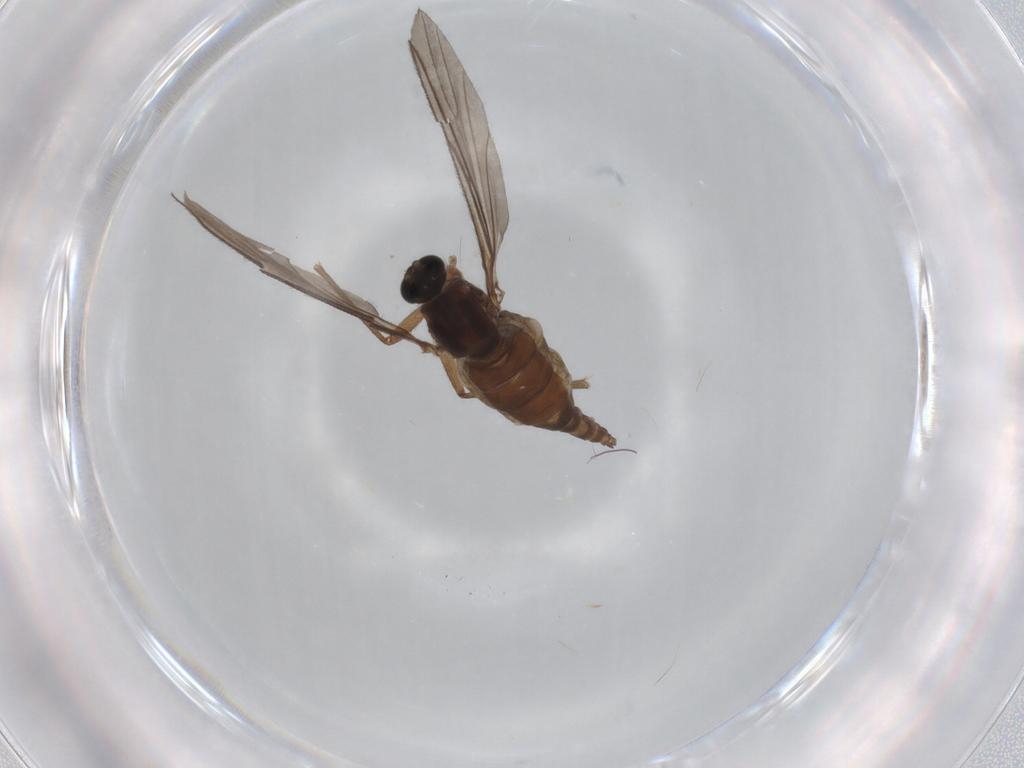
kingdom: Animalia
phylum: Arthropoda
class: Insecta
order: Diptera
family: Sciaridae
